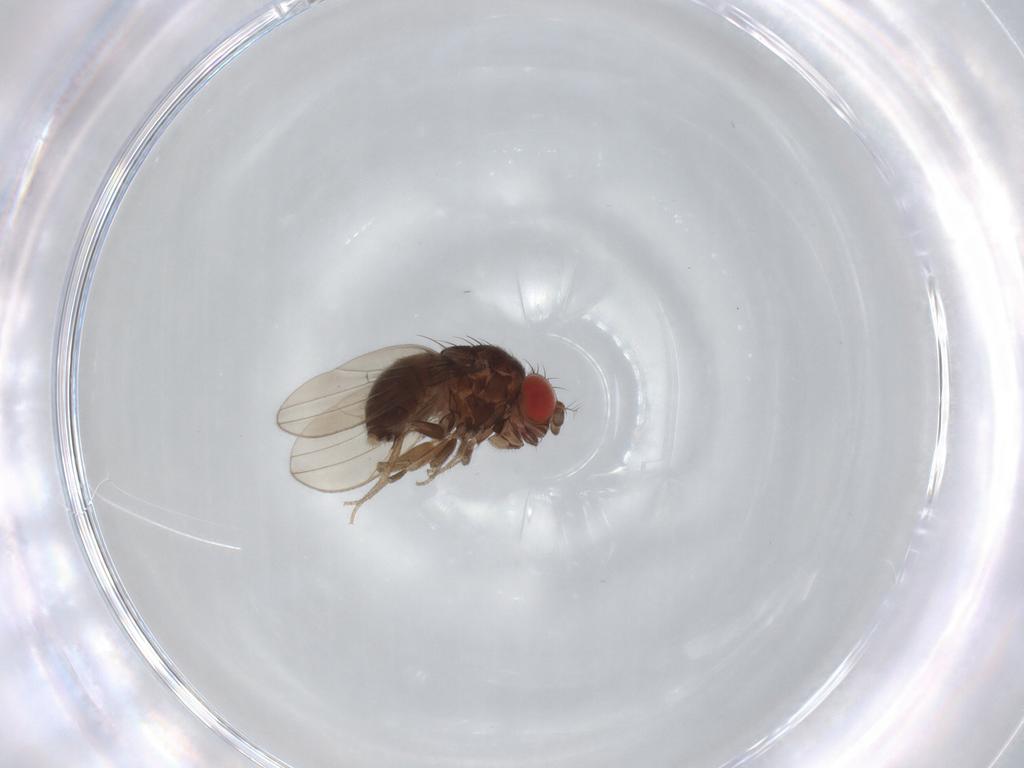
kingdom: Animalia
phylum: Arthropoda
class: Insecta
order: Diptera
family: Drosophilidae
